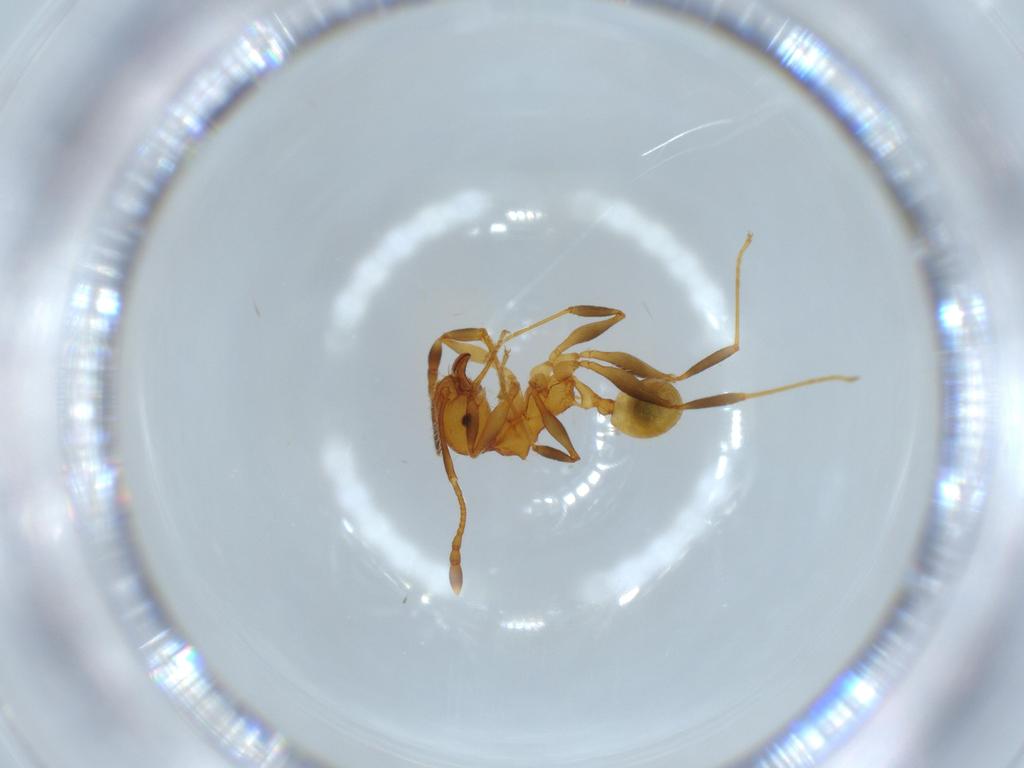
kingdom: Animalia
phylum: Arthropoda
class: Insecta
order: Hymenoptera
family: Formicidae
